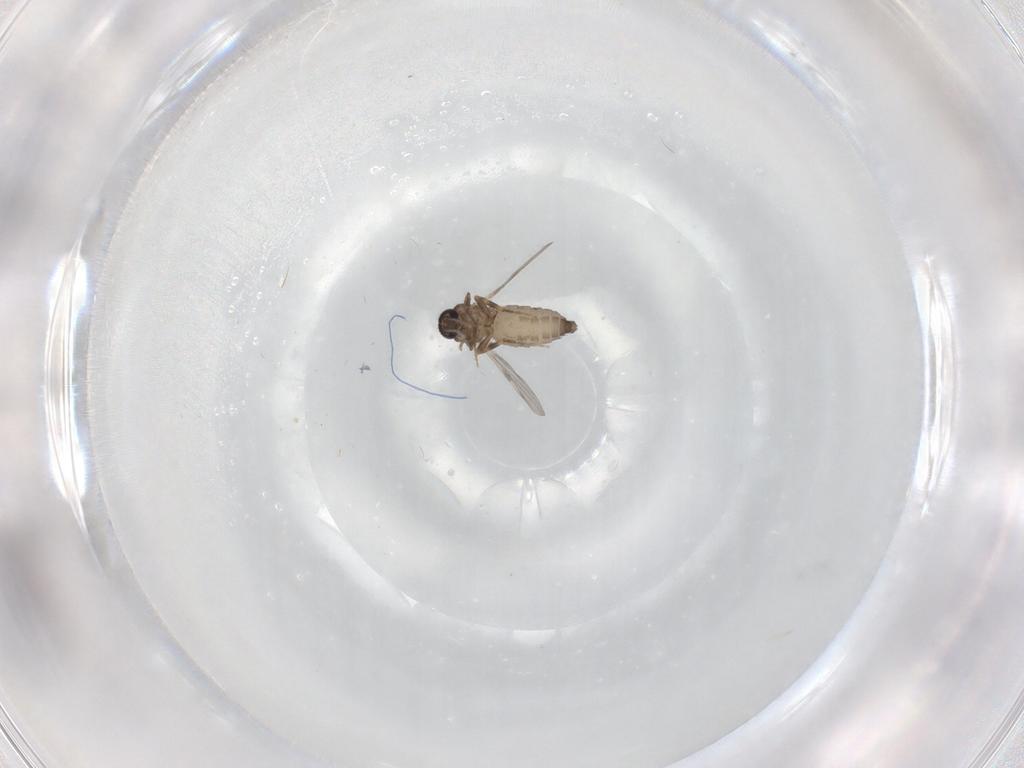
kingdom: Animalia
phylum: Arthropoda
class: Insecta
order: Diptera
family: Ceratopogonidae
